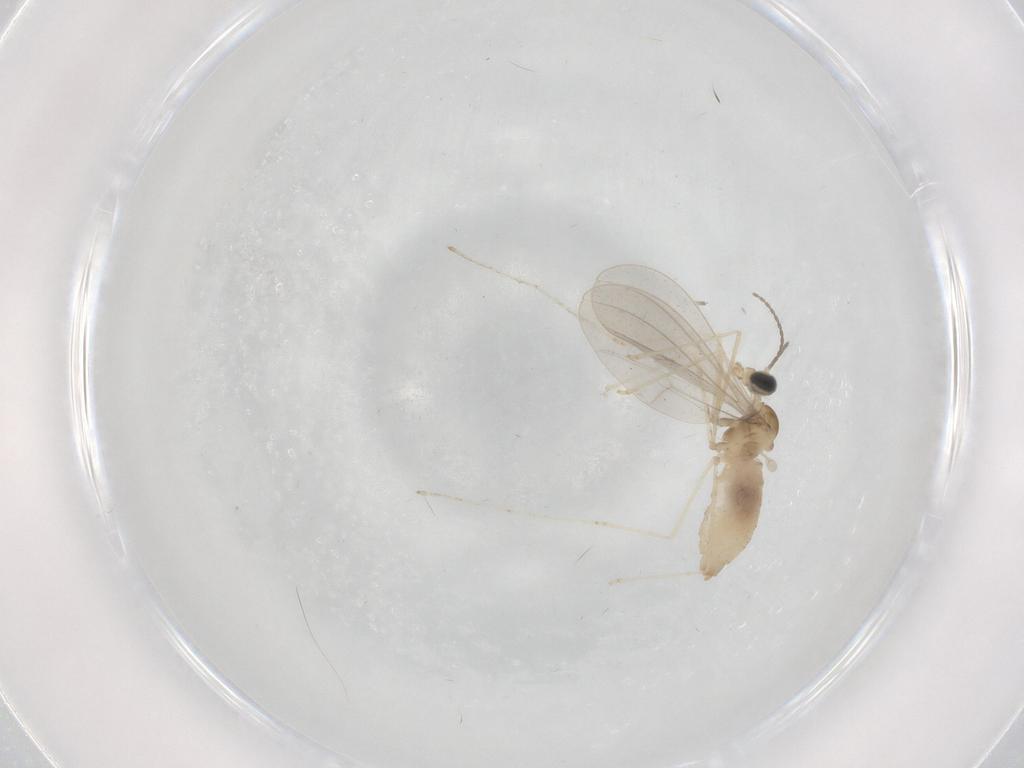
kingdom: Animalia
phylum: Arthropoda
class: Insecta
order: Diptera
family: Cecidomyiidae
